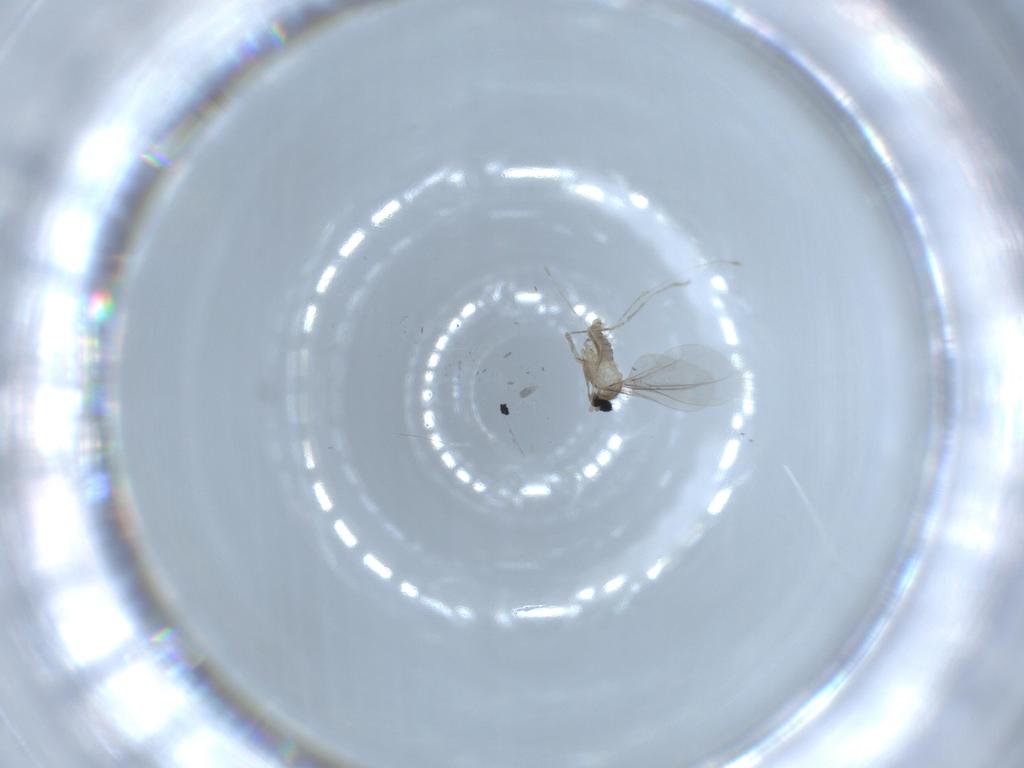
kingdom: Animalia
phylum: Arthropoda
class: Insecta
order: Diptera
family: Cecidomyiidae
